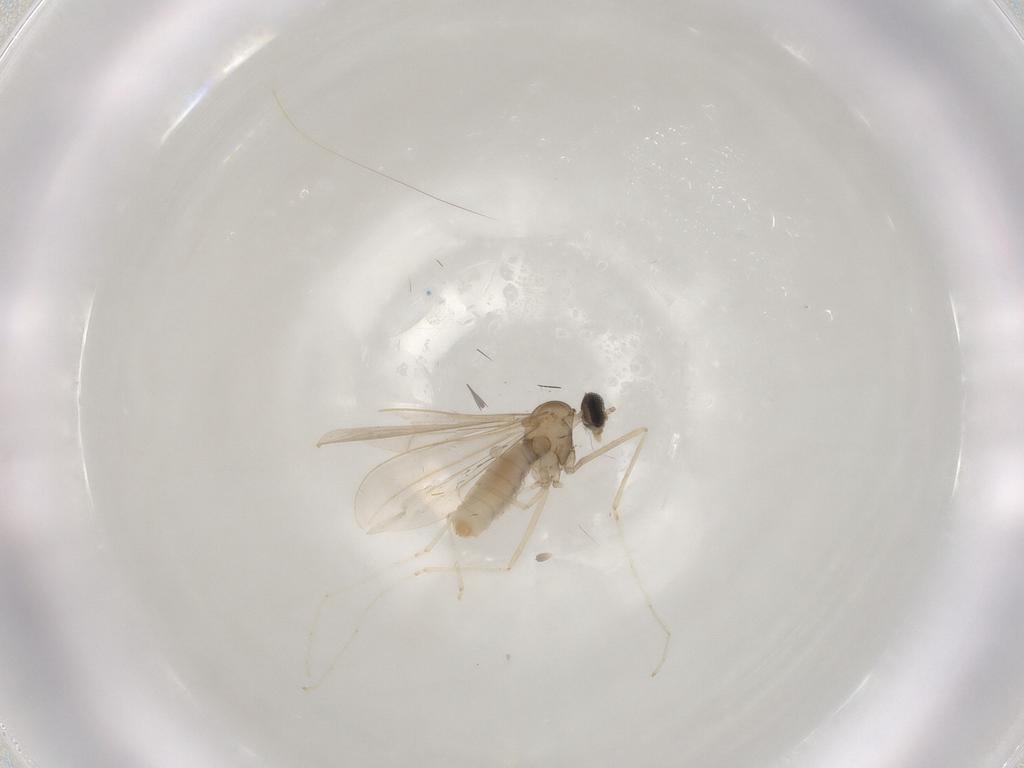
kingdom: Animalia
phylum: Arthropoda
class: Insecta
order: Diptera
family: Cecidomyiidae
